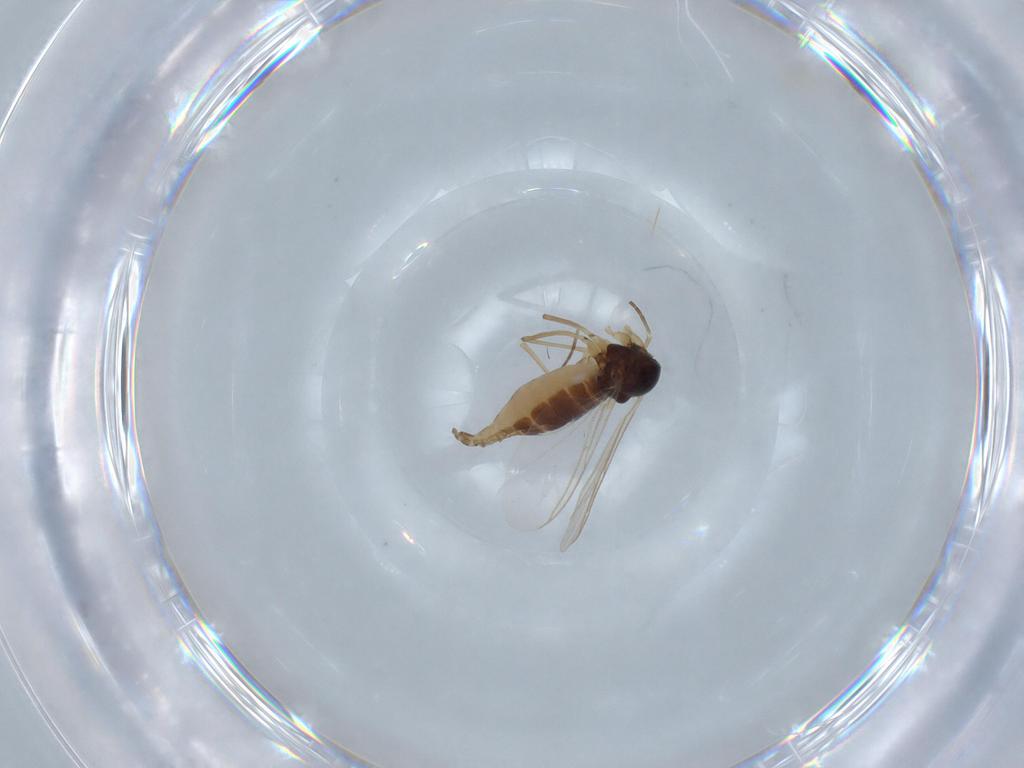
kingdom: Animalia
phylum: Arthropoda
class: Insecta
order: Diptera
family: Sciaridae
